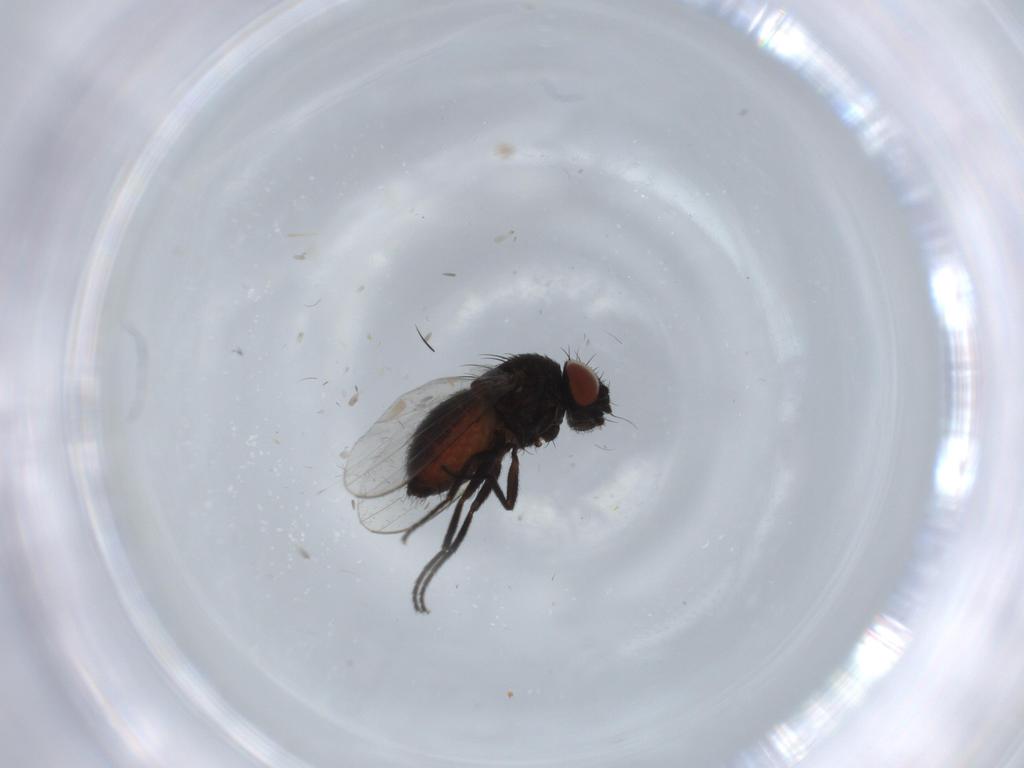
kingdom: Animalia
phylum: Arthropoda
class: Insecta
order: Diptera
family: Milichiidae
